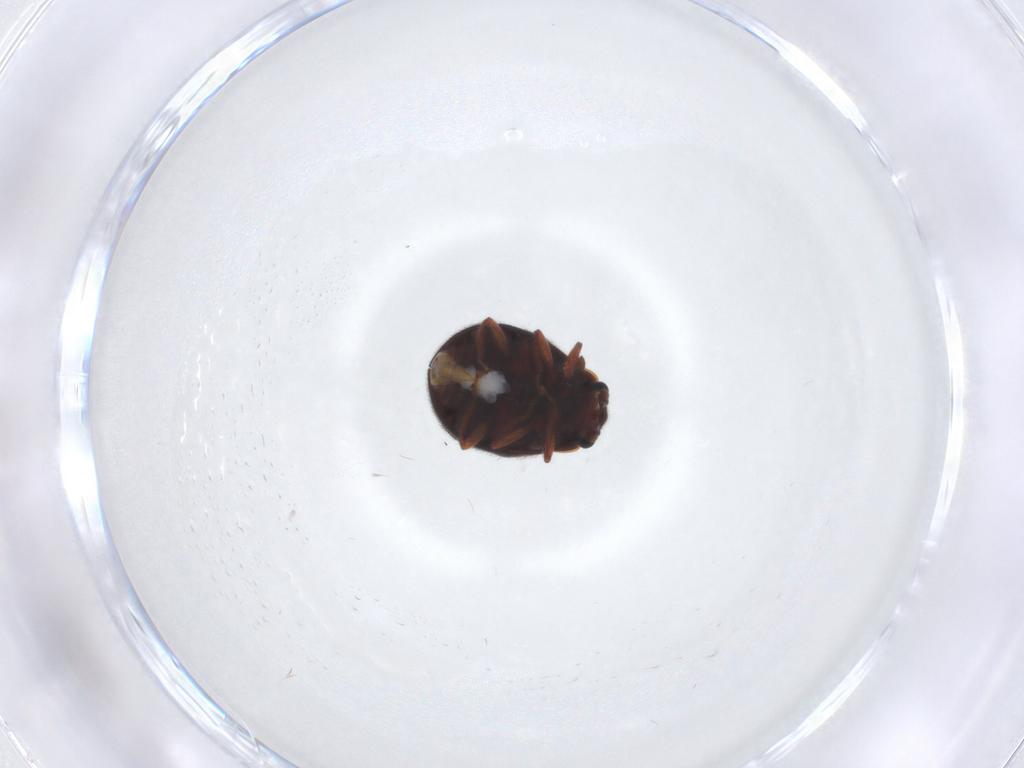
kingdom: Animalia
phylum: Arthropoda
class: Insecta
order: Coleoptera
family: Sphindidae
